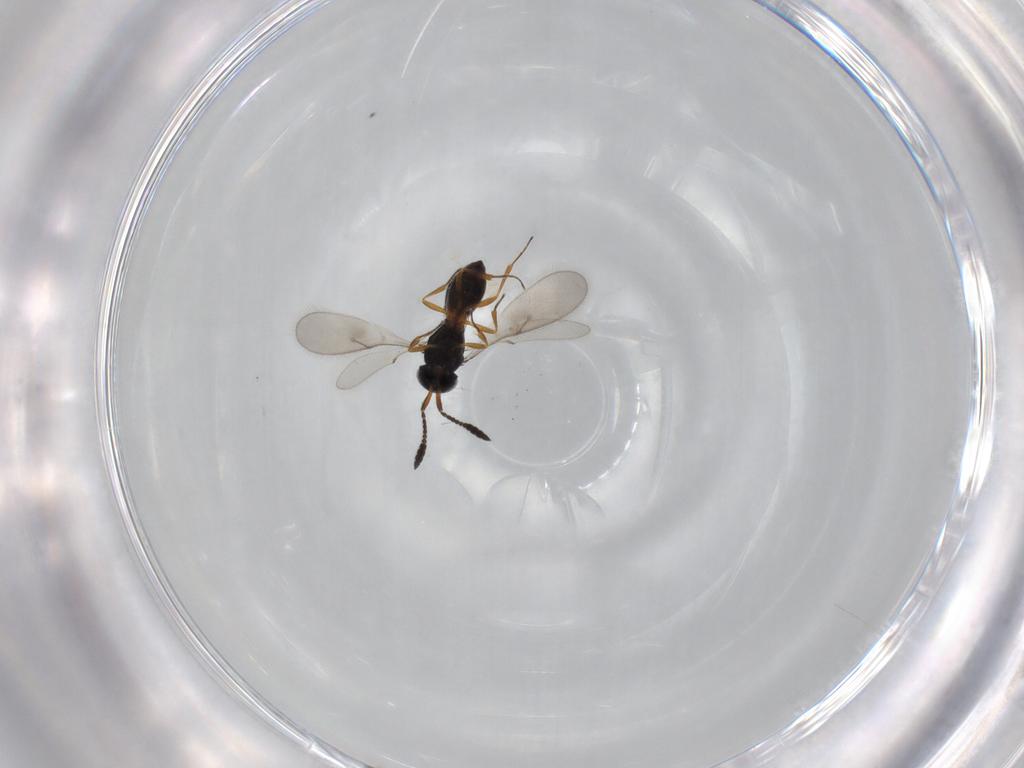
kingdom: Animalia
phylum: Arthropoda
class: Insecta
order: Hymenoptera
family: Scelionidae
